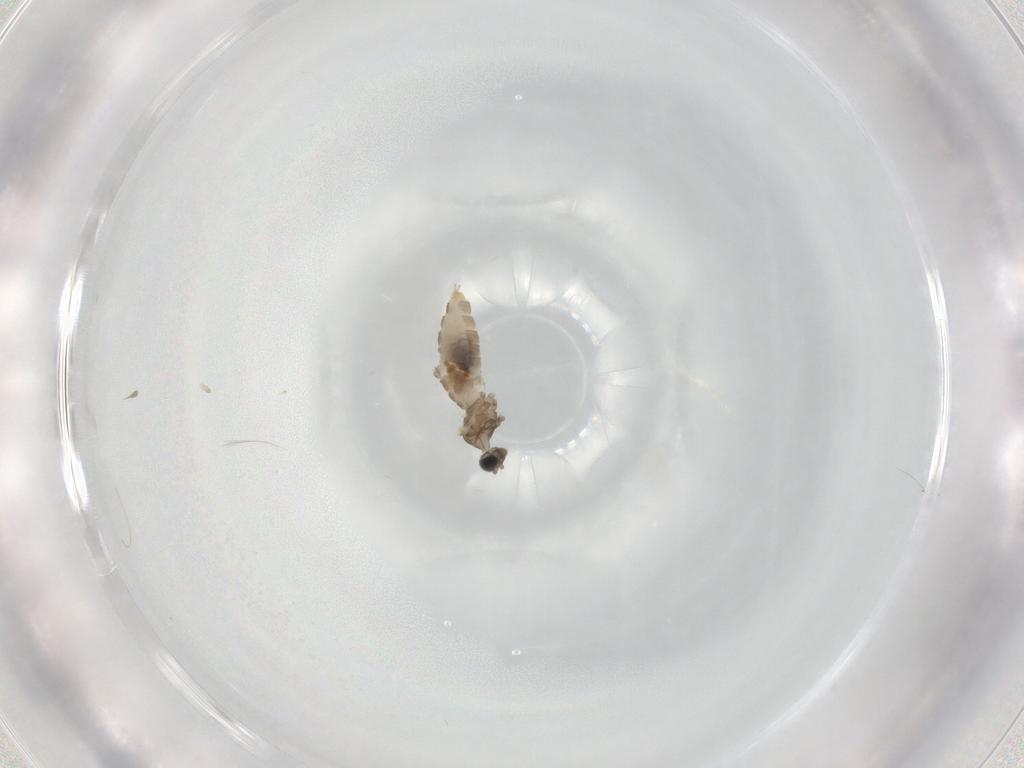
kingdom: Animalia
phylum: Arthropoda
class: Insecta
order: Diptera
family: Cecidomyiidae
